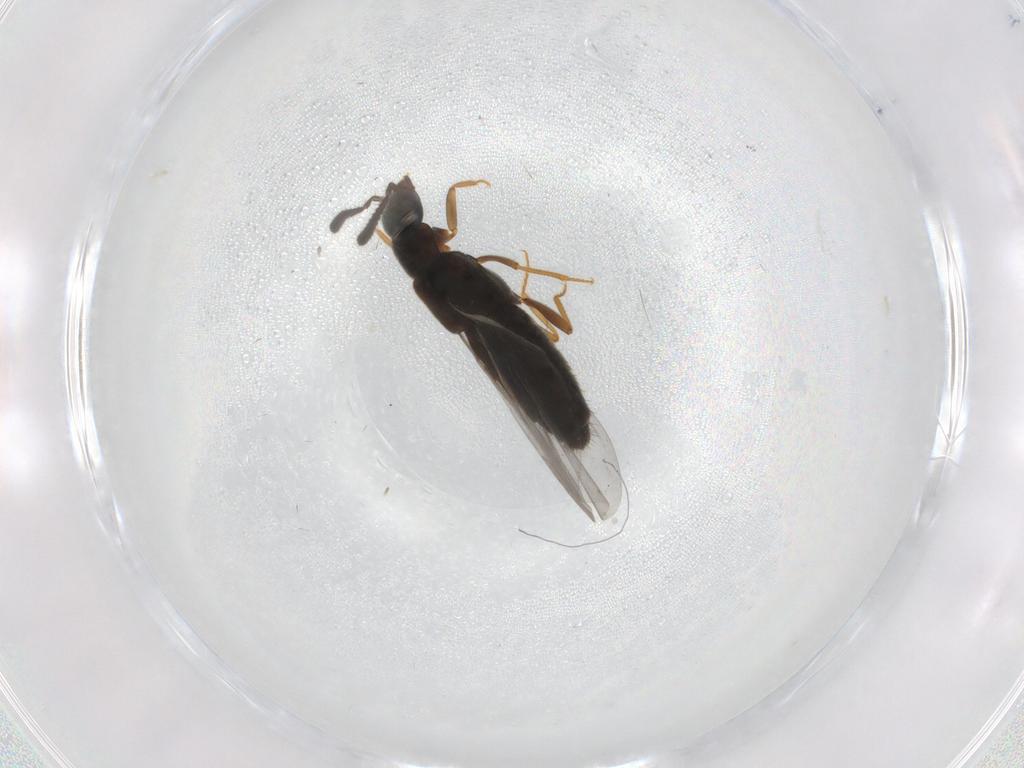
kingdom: Animalia
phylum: Arthropoda
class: Insecta
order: Coleoptera
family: Staphylinidae
